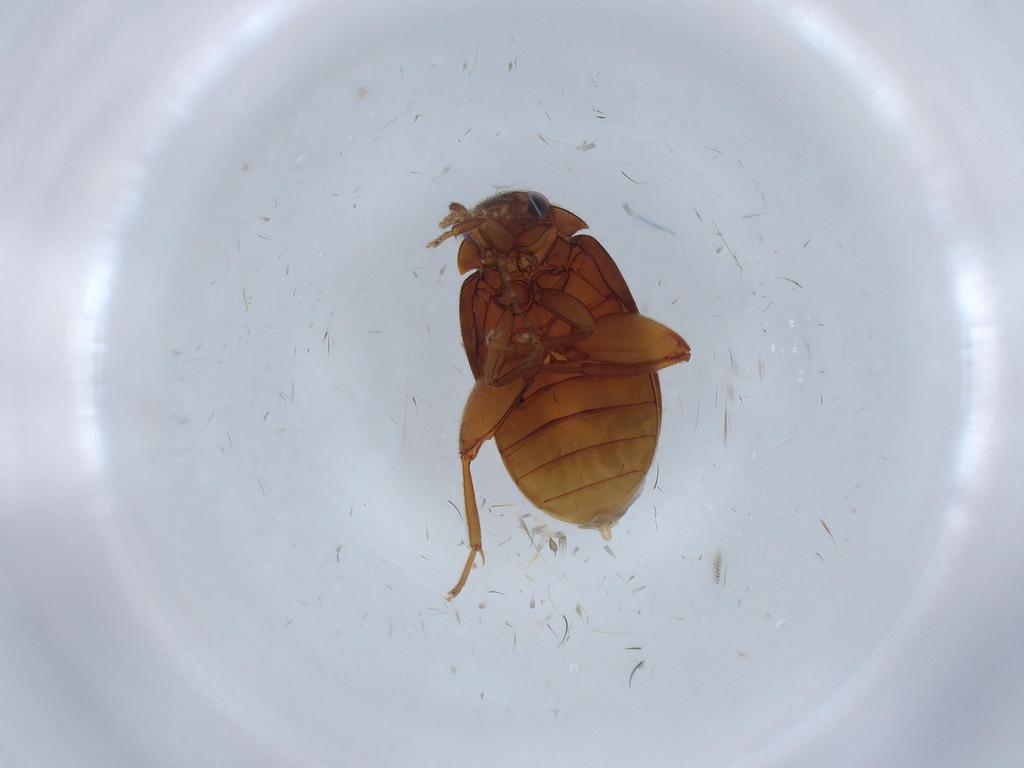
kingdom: Animalia
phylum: Arthropoda
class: Insecta
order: Coleoptera
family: Scirtidae
